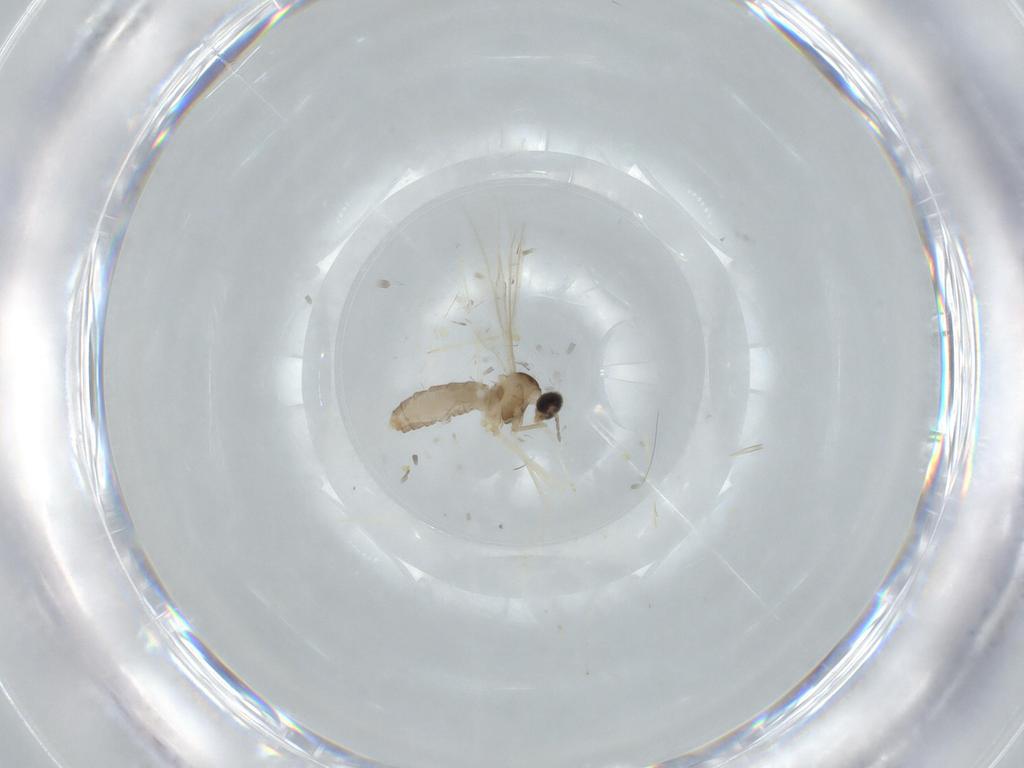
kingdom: Animalia
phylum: Arthropoda
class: Insecta
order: Diptera
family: Cecidomyiidae
